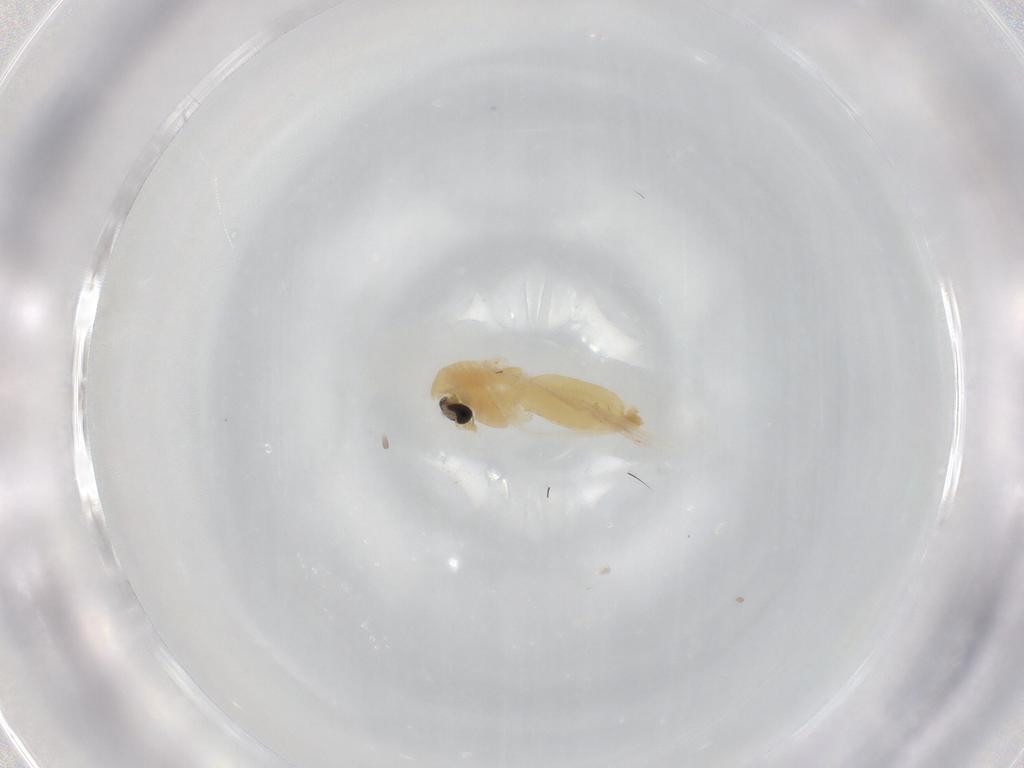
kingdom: Animalia
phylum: Arthropoda
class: Insecta
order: Diptera
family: Chironomidae
